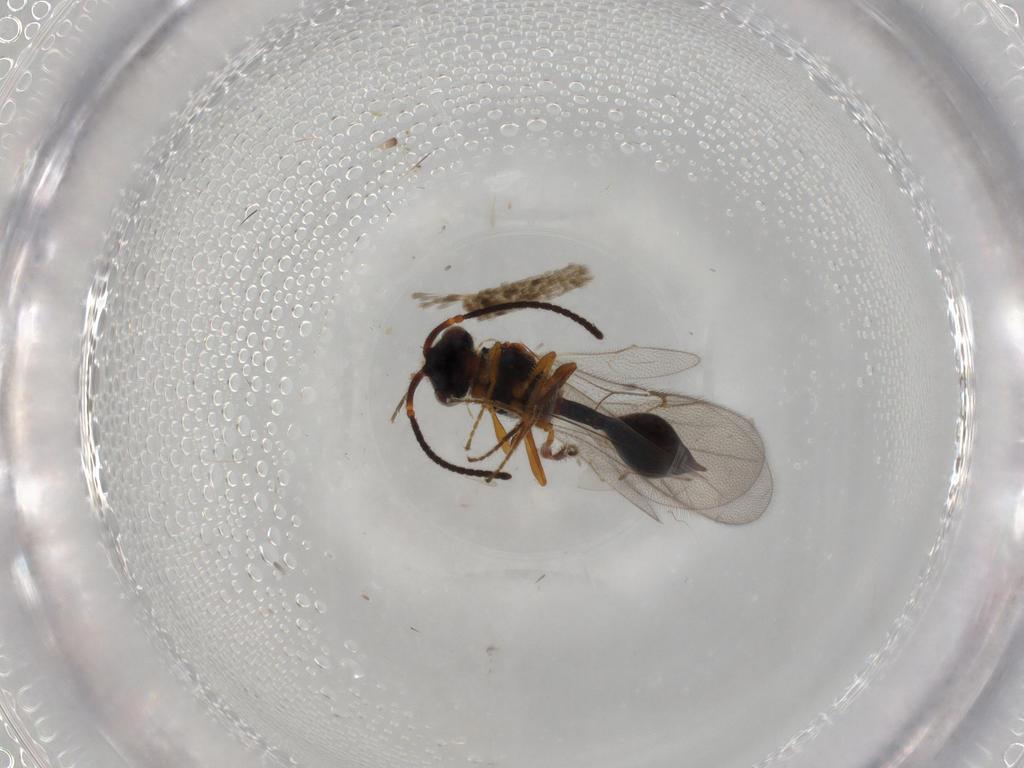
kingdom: Animalia
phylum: Arthropoda
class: Insecta
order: Hymenoptera
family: Diapriidae
